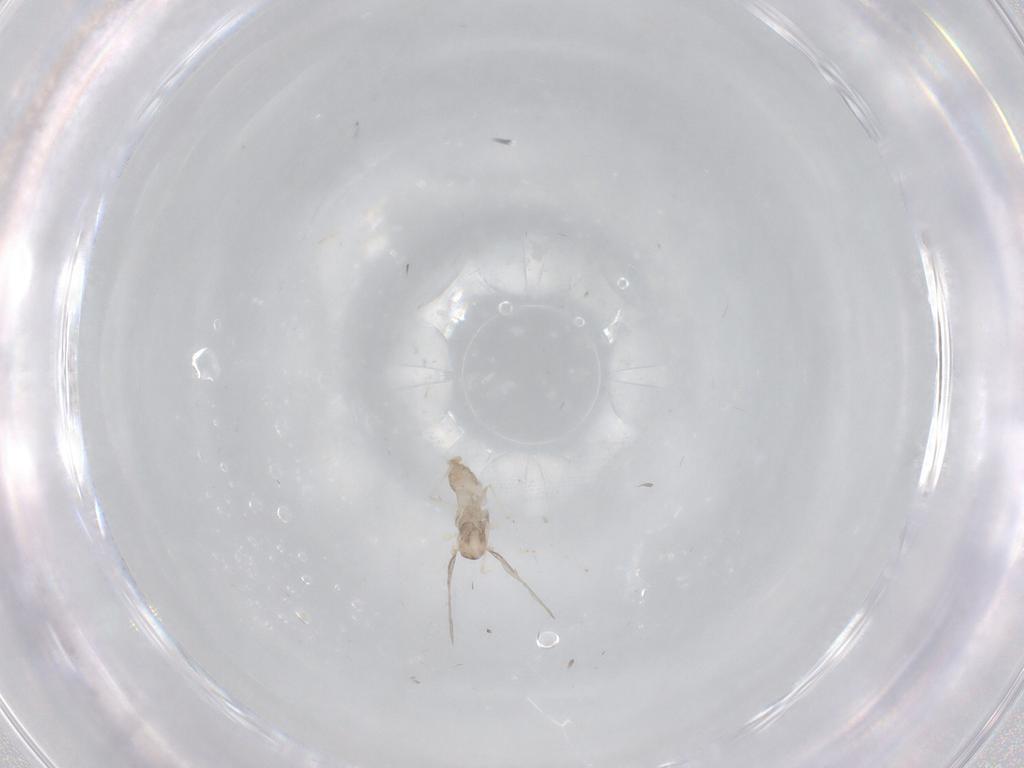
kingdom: Animalia
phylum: Arthropoda
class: Insecta
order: Diptera
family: Cecidomyiidae
